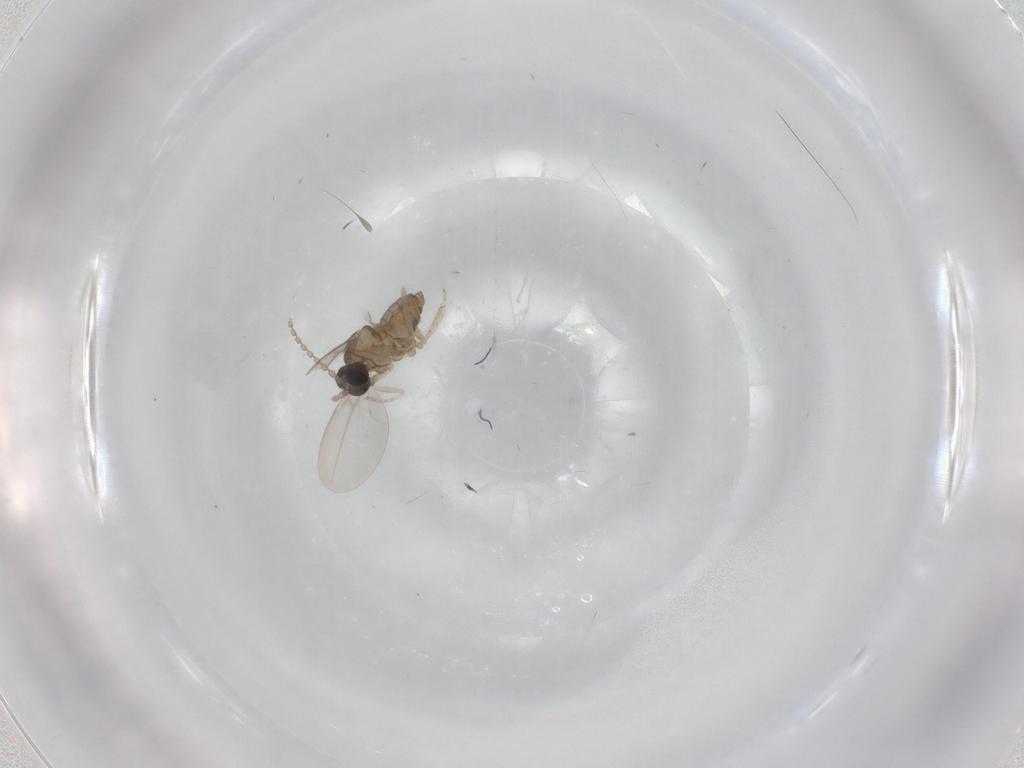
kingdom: Animalia
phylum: Arthropoda
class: Insecta
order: Diptera
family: Cecidomyiidae
